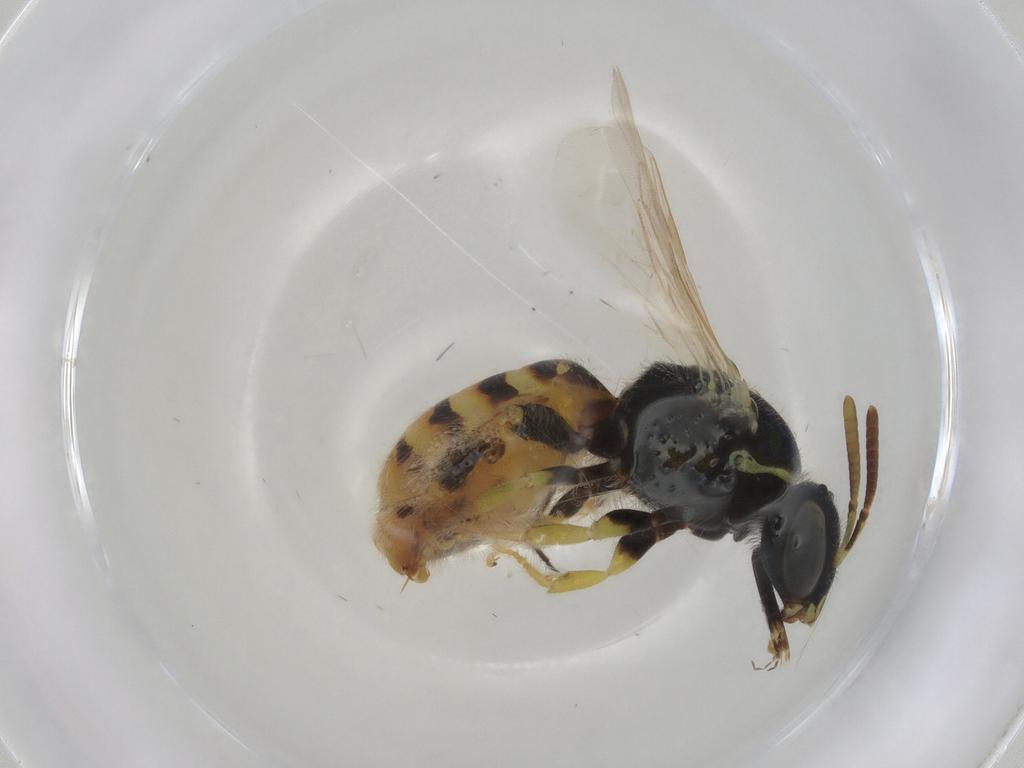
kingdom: Animalia
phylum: Arthropoda
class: Insecta
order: Hymenoptera
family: Halictidae
